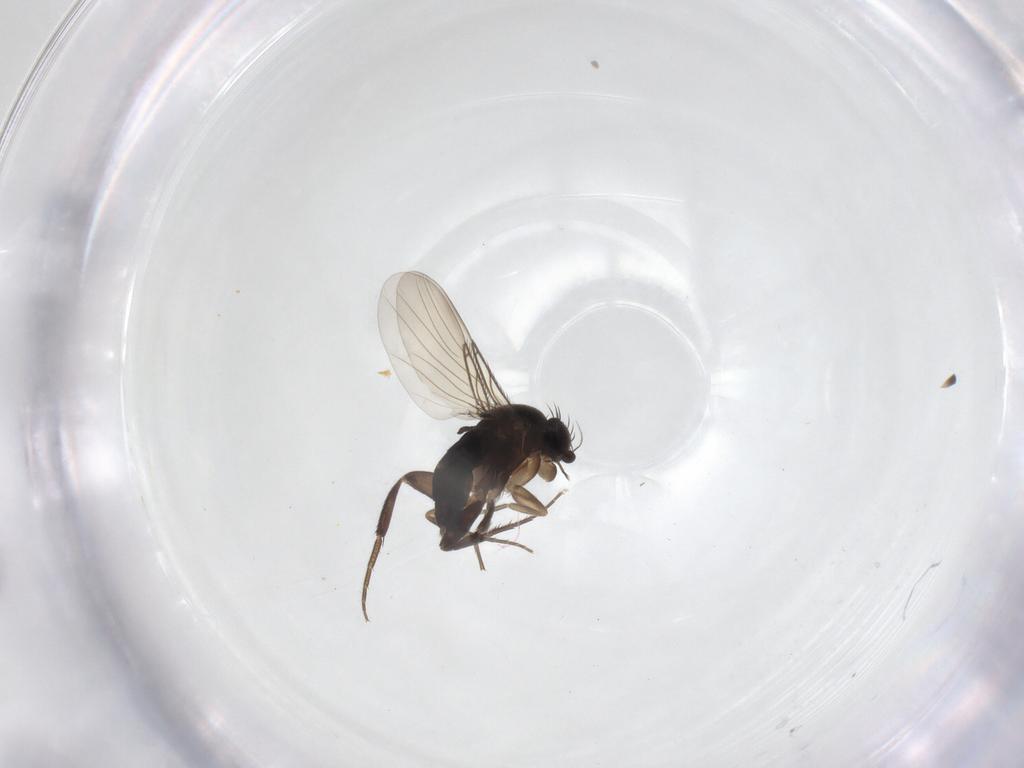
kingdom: Animalia
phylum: Arthropoda
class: Insecta
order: Diptera
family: Phoridae
